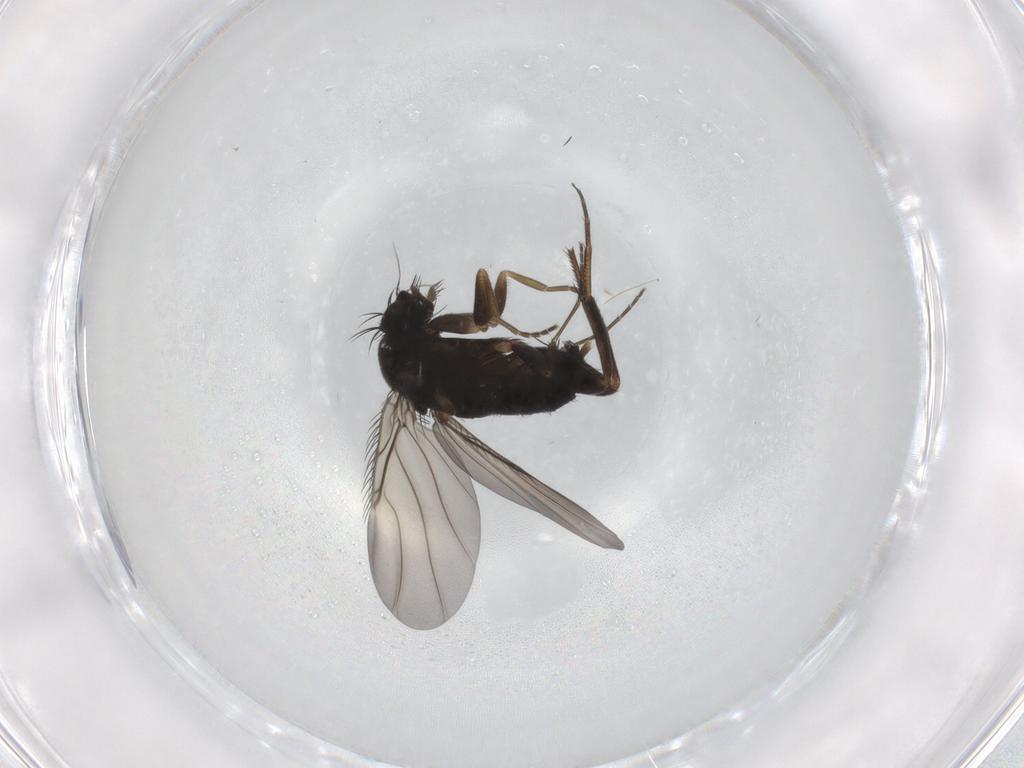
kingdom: Animalia
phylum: Arthropoda
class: Insecta
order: Diptera
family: Phoridae
